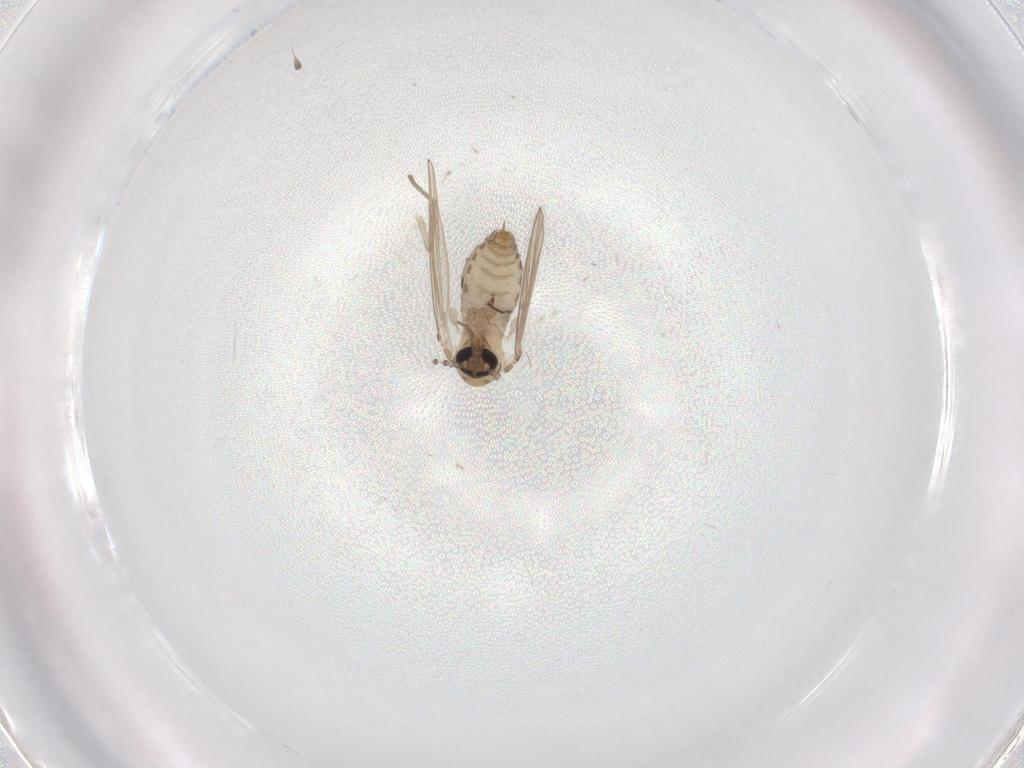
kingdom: Animalia
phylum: Arthropoda
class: Insecta
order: Diptera
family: Psychodidae
